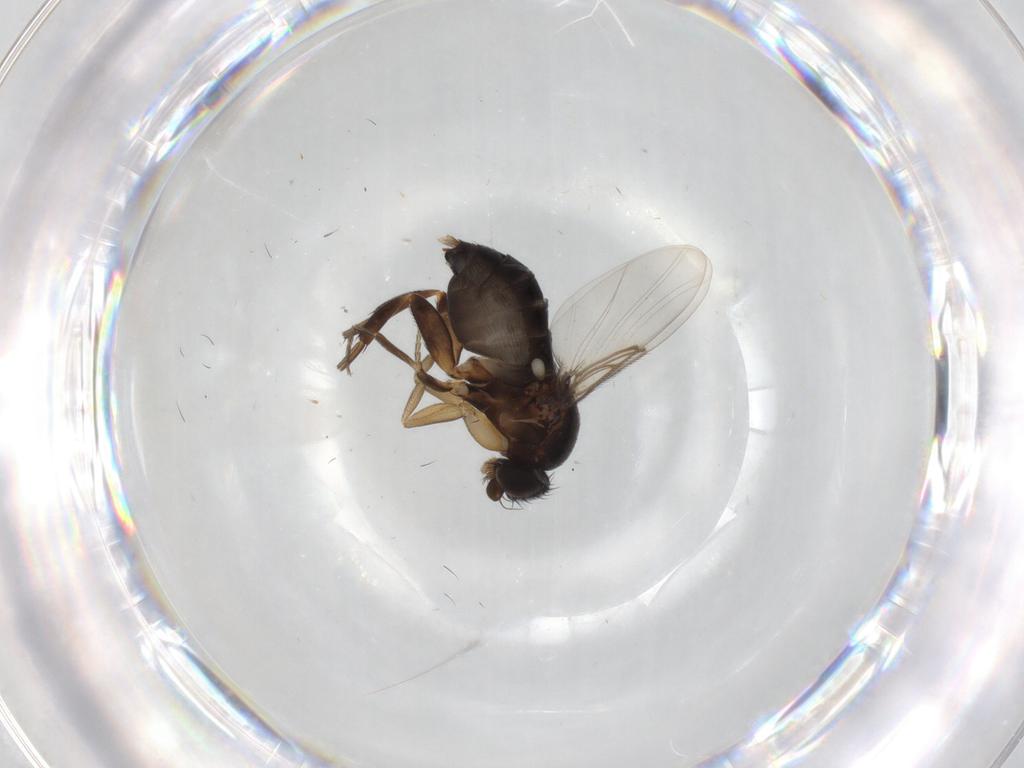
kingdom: Animalia
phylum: Arthropoda
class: Insecta
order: Diptera
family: Phoridae
